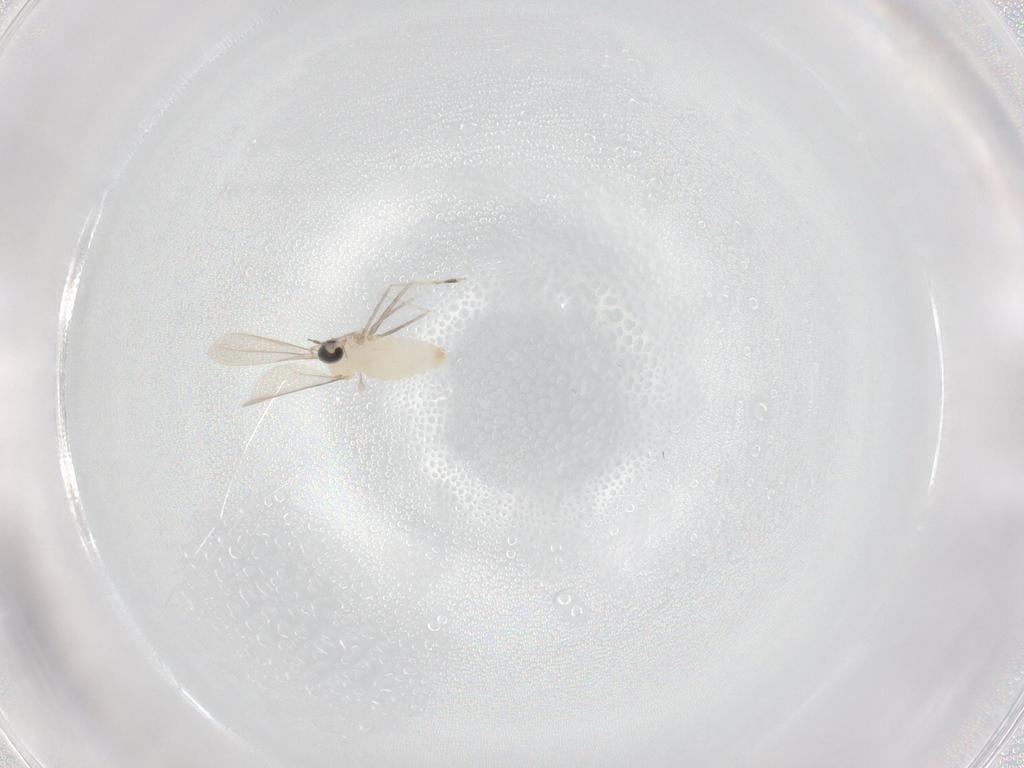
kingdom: Animalia
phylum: Arthropoda
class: Insecta
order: Diptera
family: Cecidomyiidae
